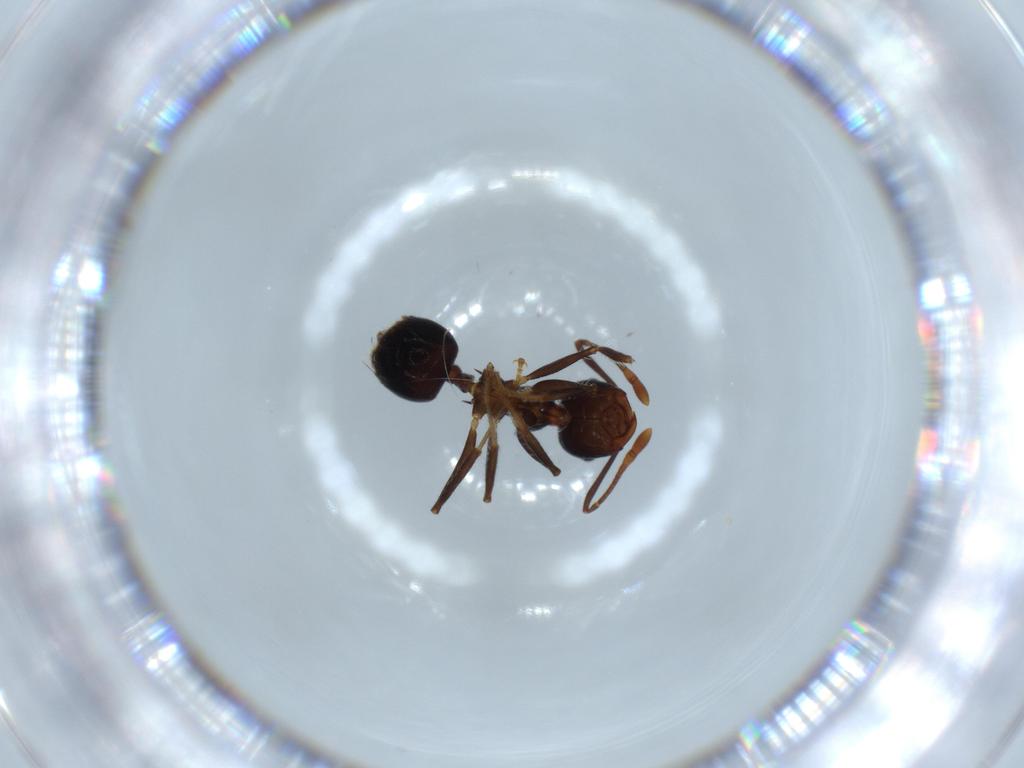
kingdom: Animalia
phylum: Arthropoda
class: Insecta
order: Hymenoptera
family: Formicidae
